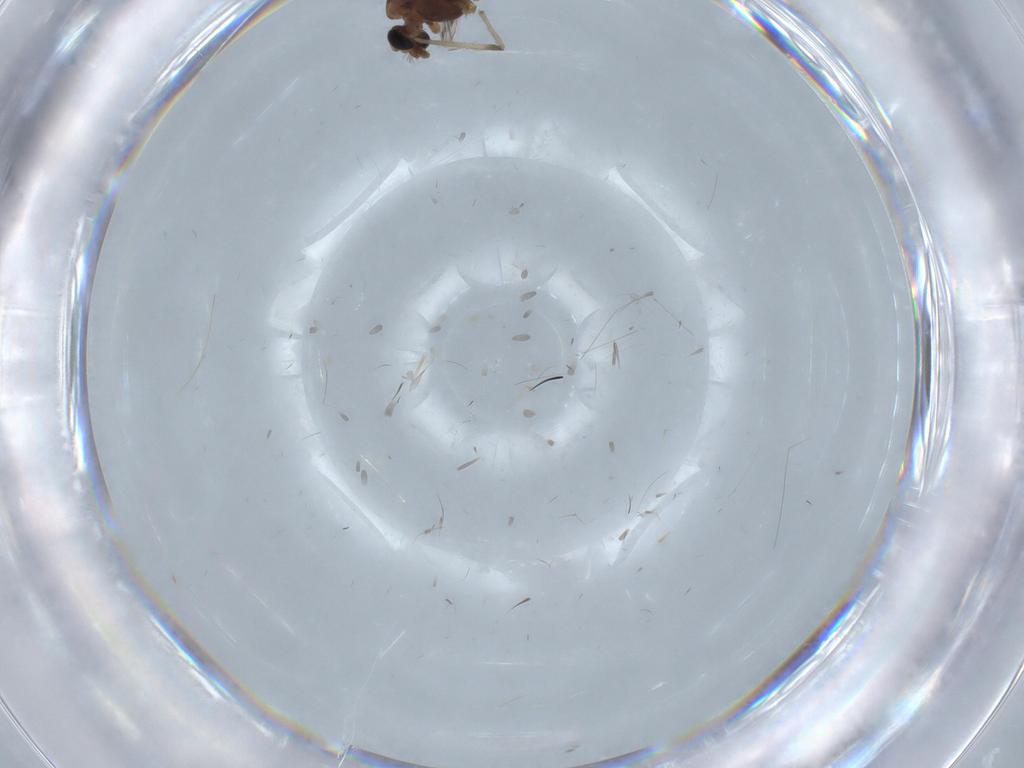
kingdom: Animalia
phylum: Arthropoda
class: Insecta
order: Diptera
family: Chironomidae
